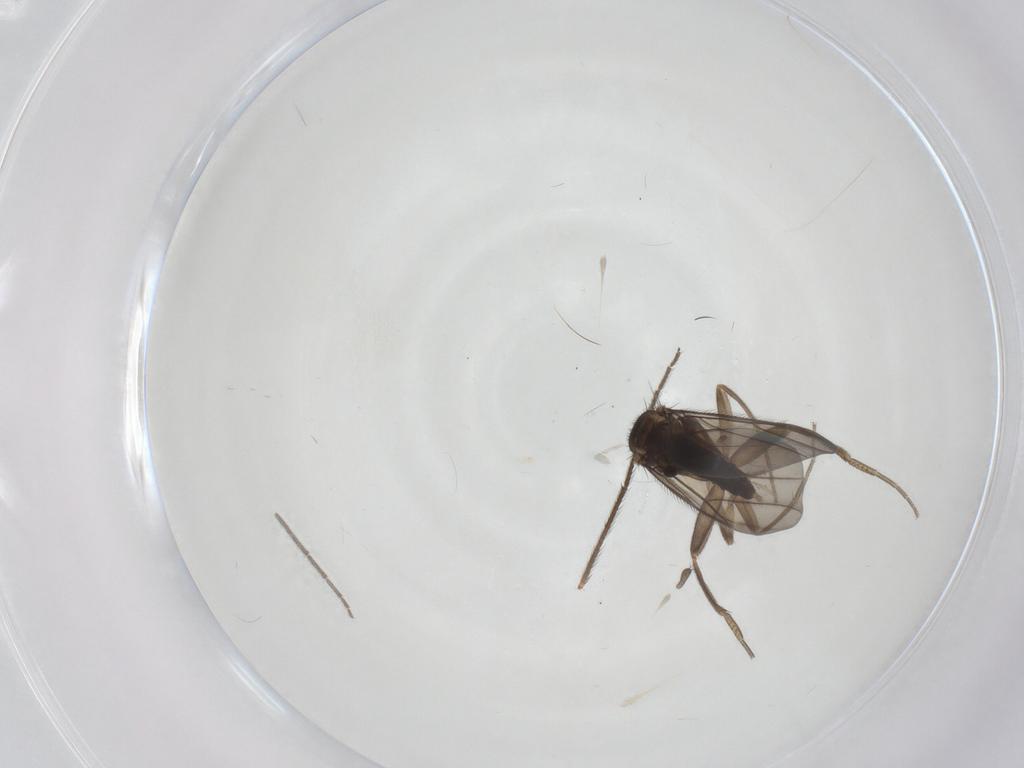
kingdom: Animalia
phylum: Arthropoda
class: Insecta
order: Diptera
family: Chironomidae
